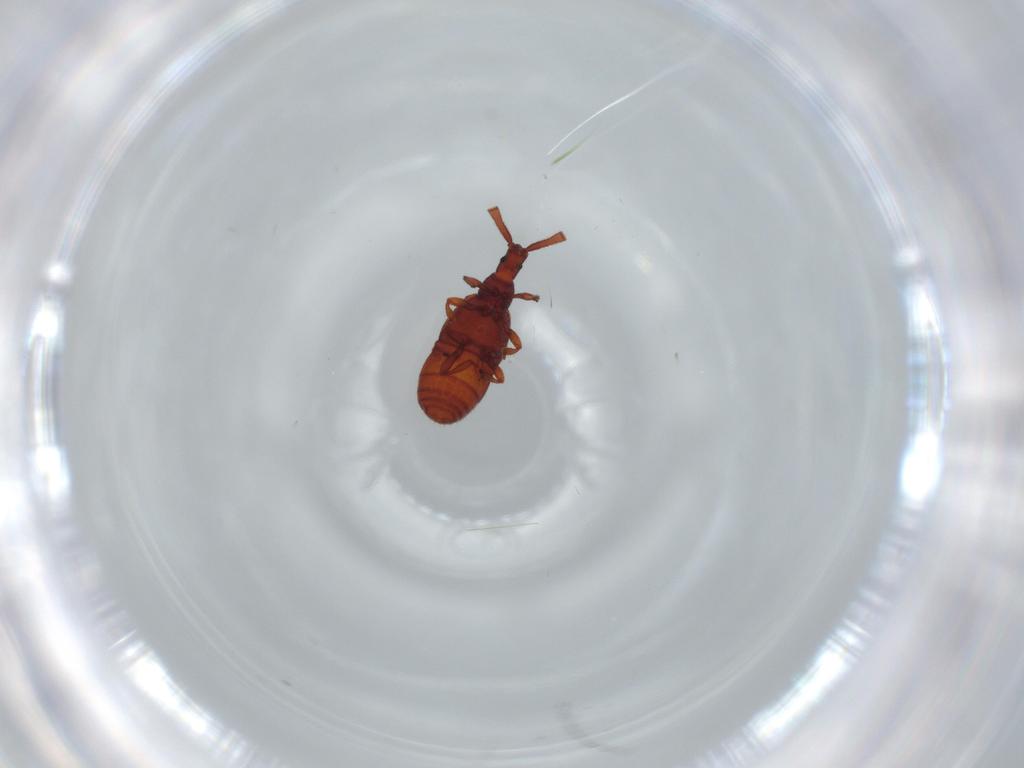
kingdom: Animalia
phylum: Arthropoda
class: Insecta
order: Coleoptera
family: Staphylinidae
